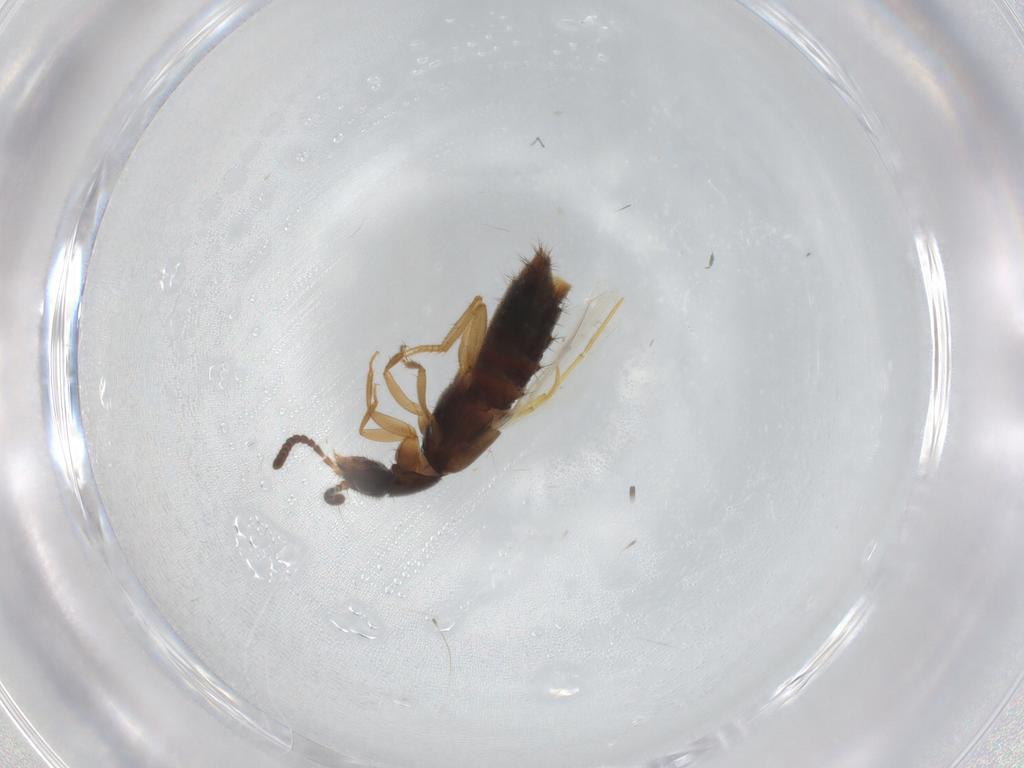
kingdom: Animalia
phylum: Arthropoda
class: Insecta
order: Coleoptera
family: Staphylinidae
